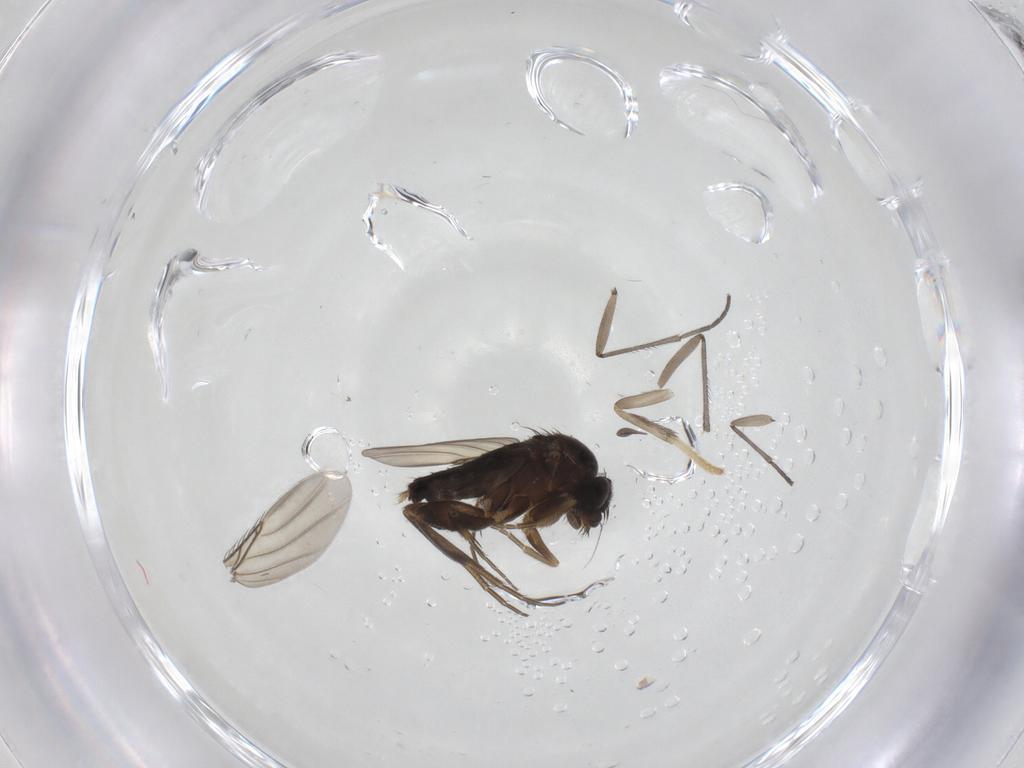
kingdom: Animalia
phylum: Arthropoda
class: Insecta
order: Diptera
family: Psychodidae
